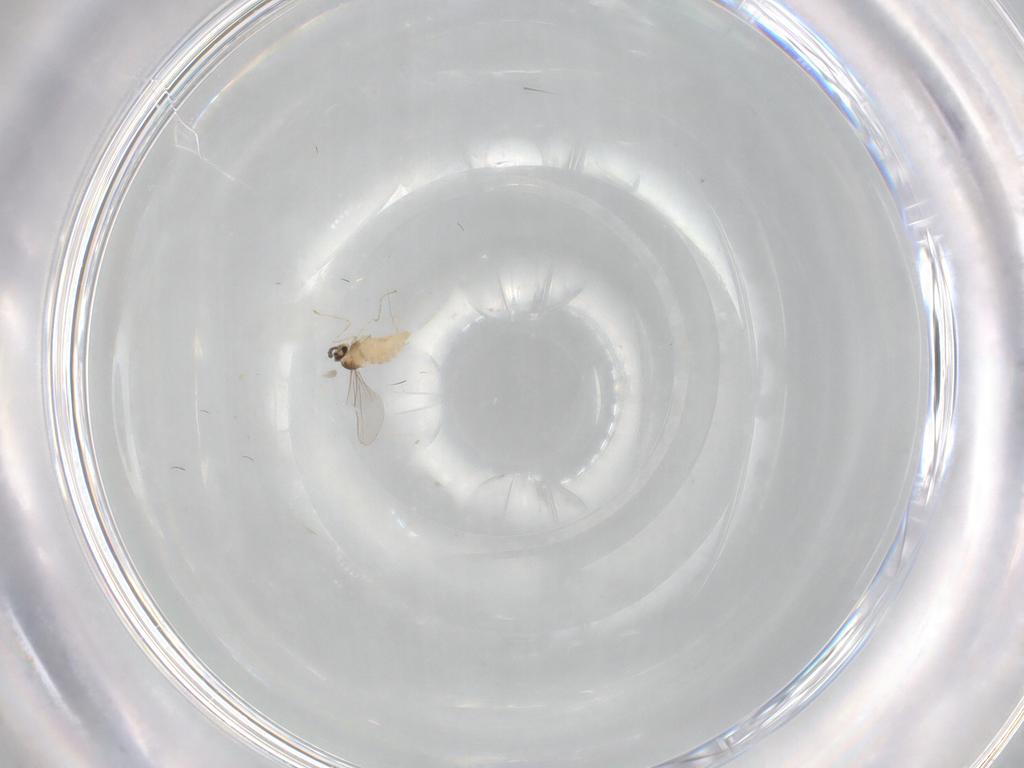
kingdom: Animalia
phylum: Arthropoda
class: Insecta
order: Diptera
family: Cecidomyiidae
